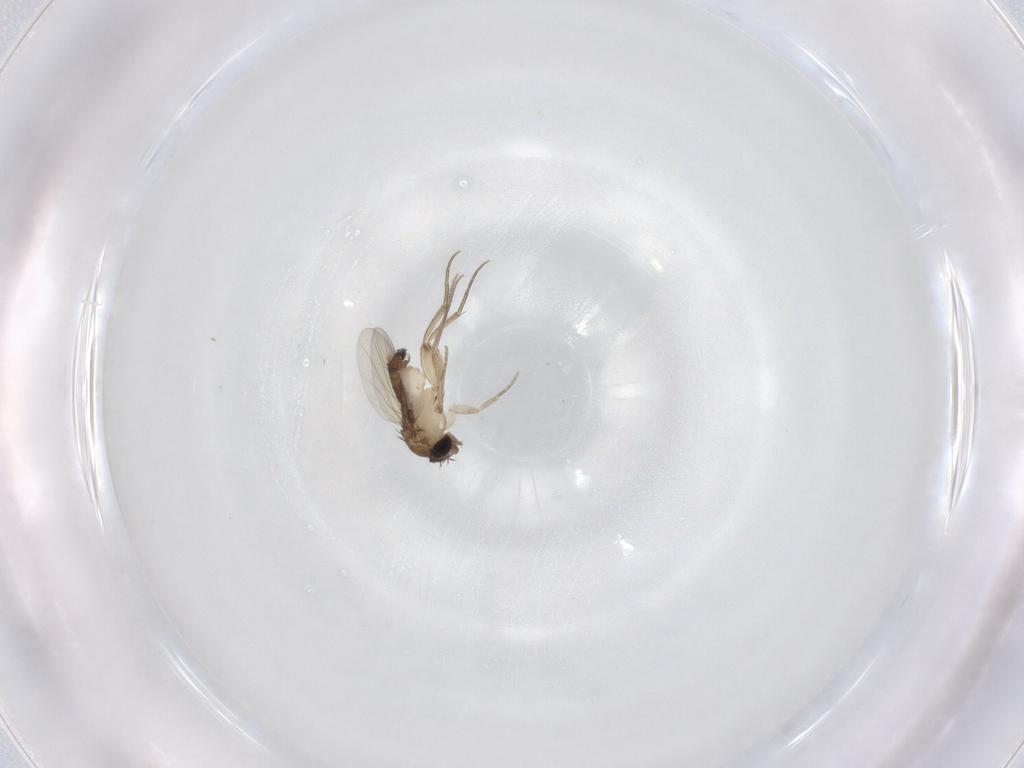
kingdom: Animalia
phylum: Arthropoda
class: Insecta
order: Diptera
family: Phoridae
